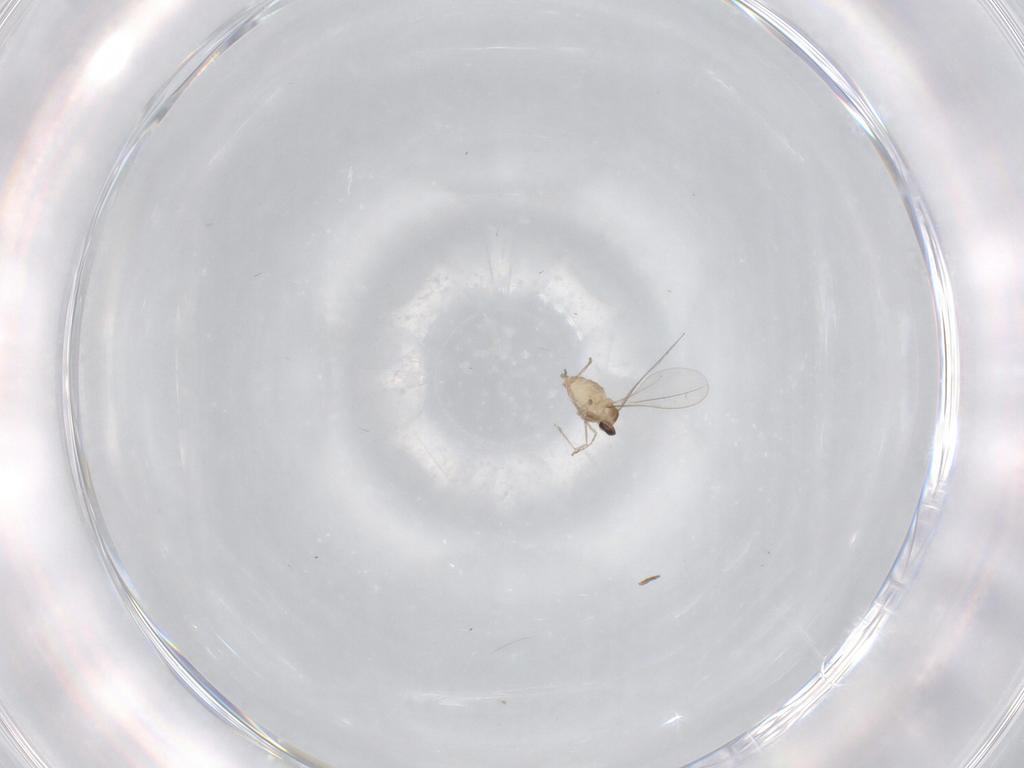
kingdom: Animalia
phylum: Arthropoda
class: Insecta
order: Diptera
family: Cecidomyiidae
